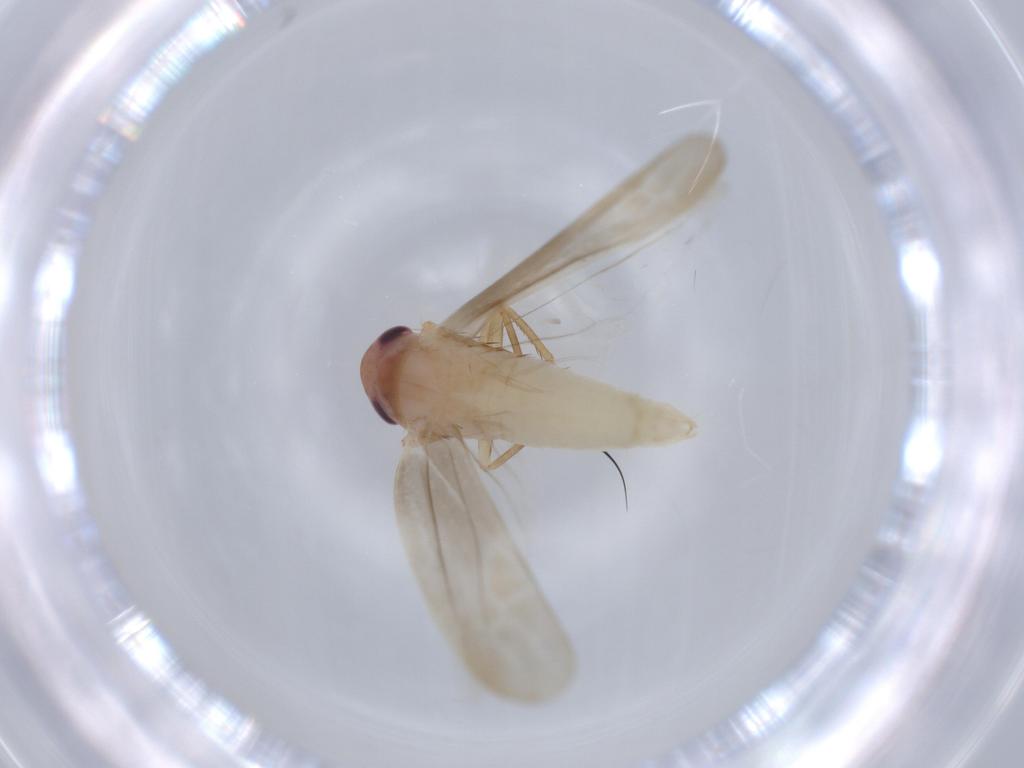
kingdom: Animalia
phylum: Arthropoda
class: Insecta
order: Hemiptera
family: Cicadellidae
